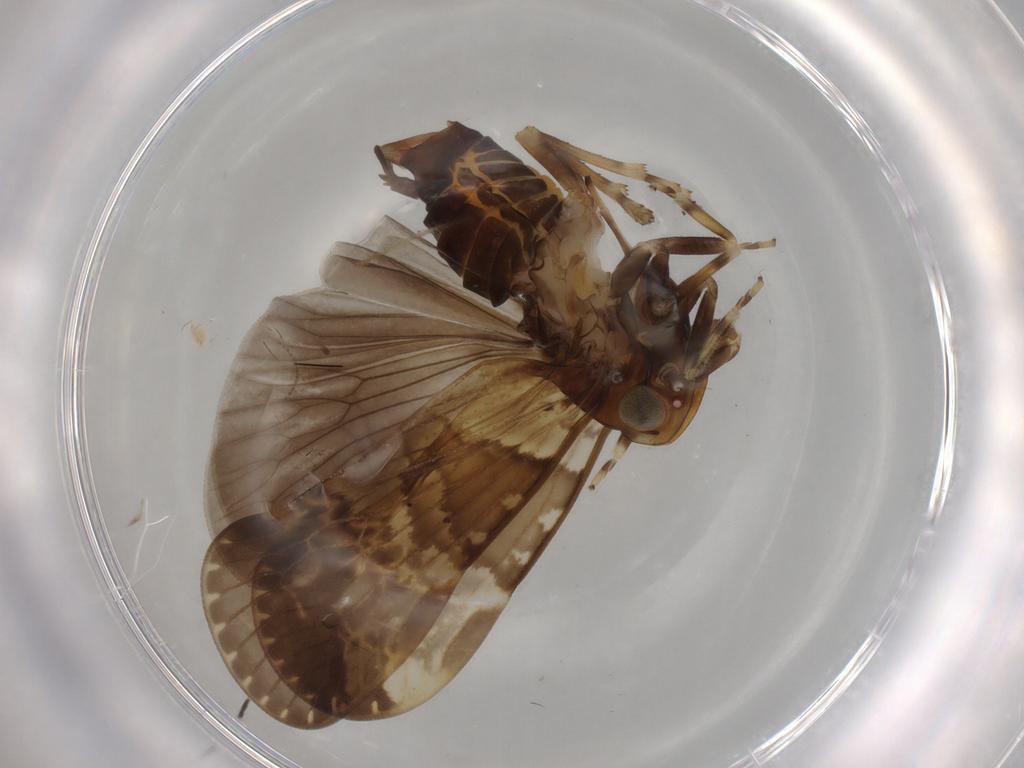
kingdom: Animalia
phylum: Arthropoda
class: Insecta
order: Hemiptera
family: Cixiidae
